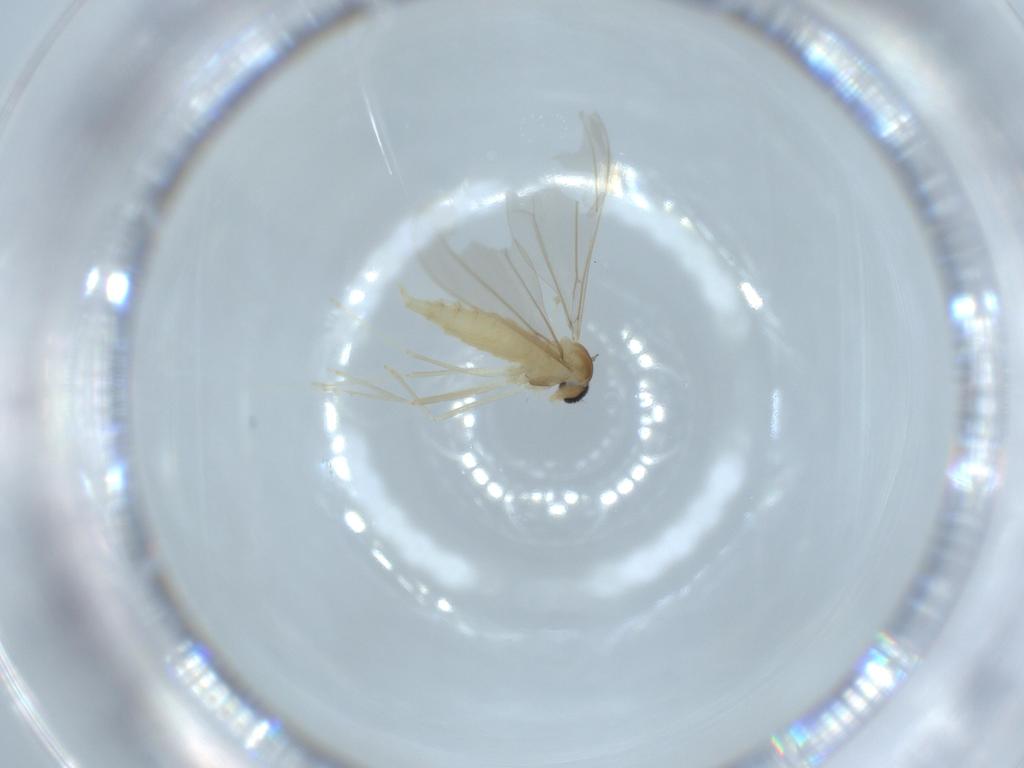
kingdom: Animalia
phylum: Arthropoda
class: Insecta
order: Diptera
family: Cecidomyiidae
